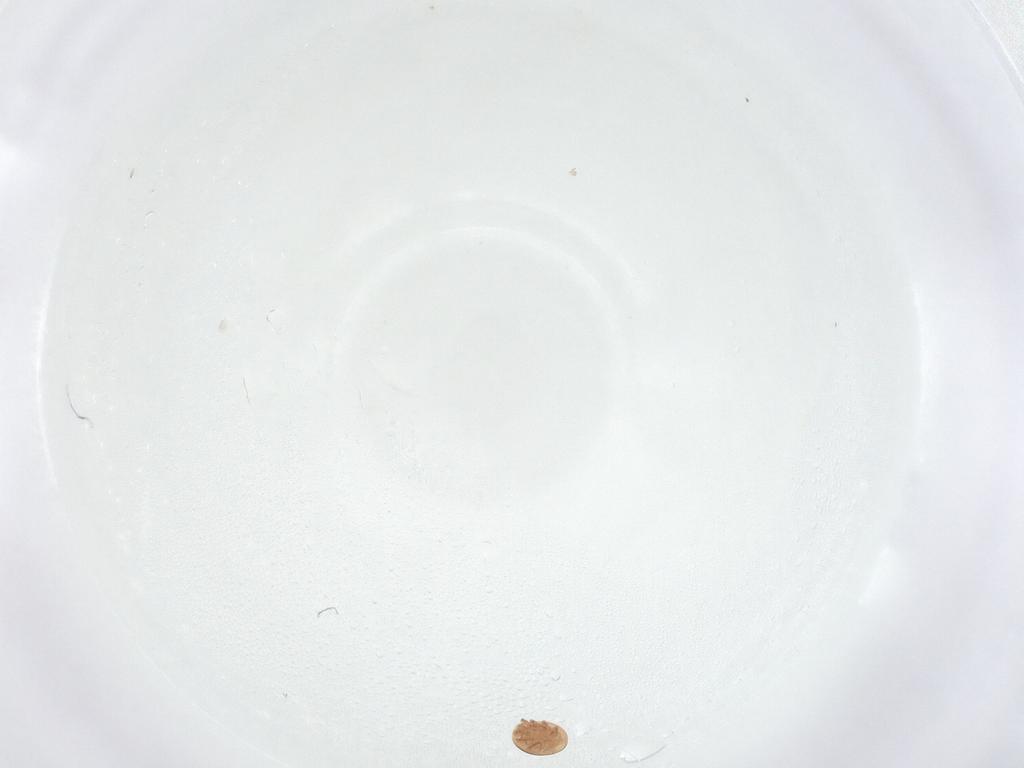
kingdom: Animalia
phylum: Arthropoda
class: Arachnida
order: Mesostigmata
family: Trematuridae
